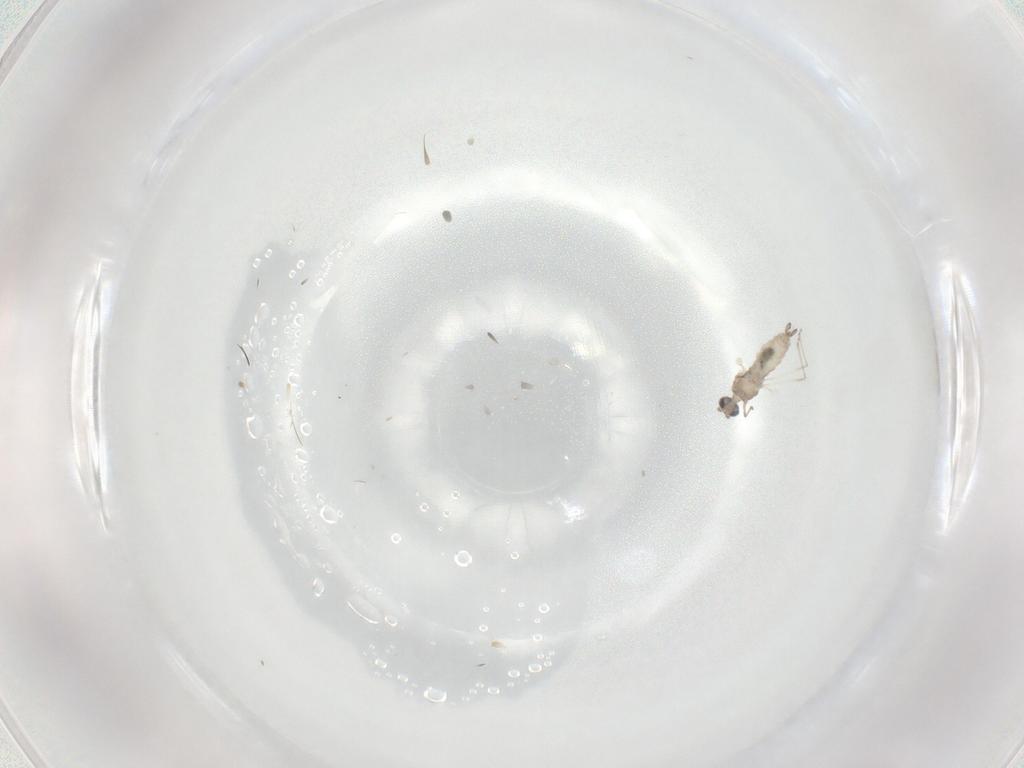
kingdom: Animalia
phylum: Arthropoda
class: Insecta
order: Diptera
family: Cecidomyiidae
